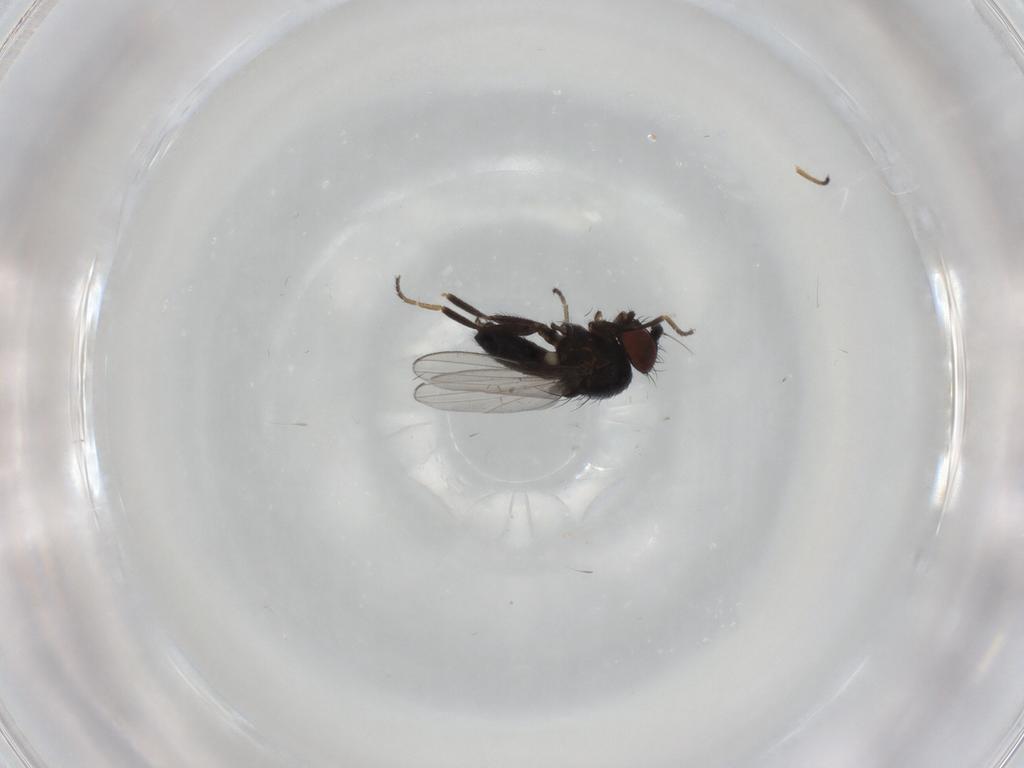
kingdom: Animalia
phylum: Arthropoda
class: Insecta
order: Diptera
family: Milichiidae
